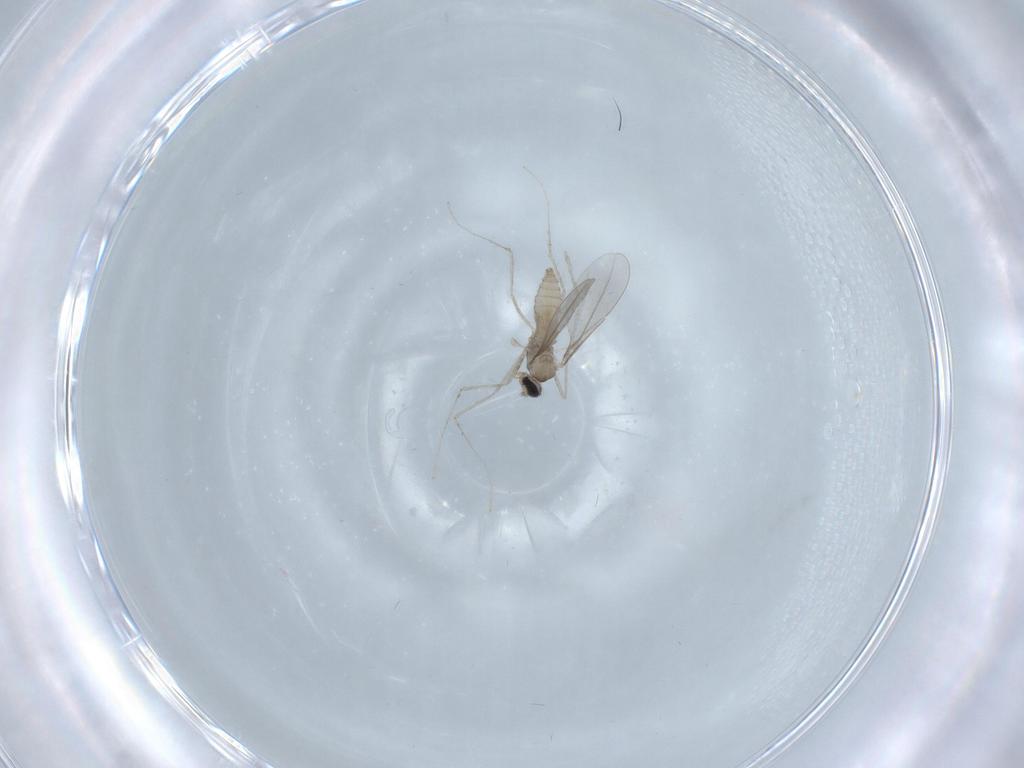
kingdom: Animalia
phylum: Arthropoda
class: Insecta
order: Diptera
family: Cecidomyiidae
